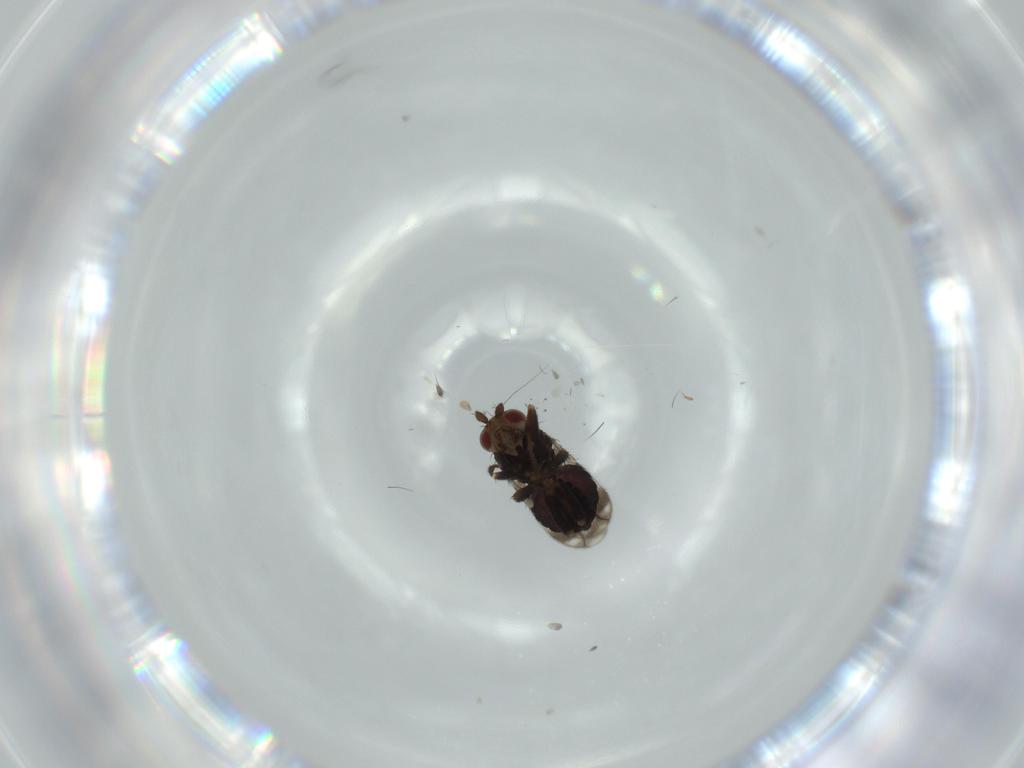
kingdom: Animalia
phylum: Arthropoda
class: Insecta
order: Diptera
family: Sphaeroceridae
